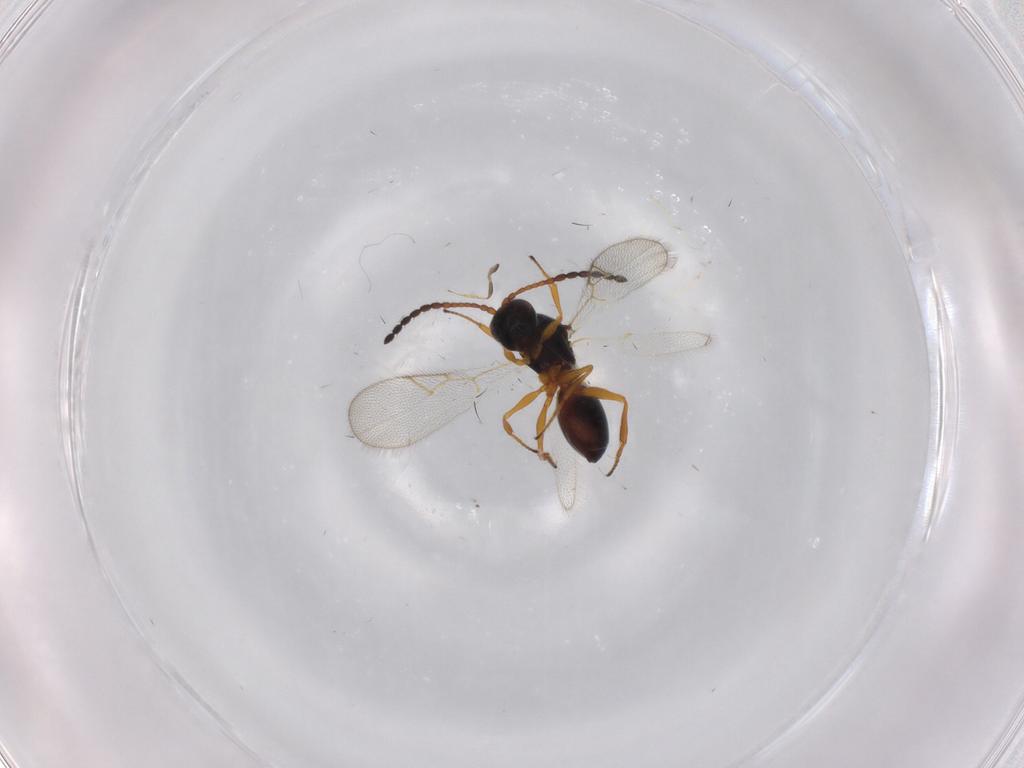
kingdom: Animalia
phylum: Arthropoda
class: Insecta
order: Hymenoptera
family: Figitidae
